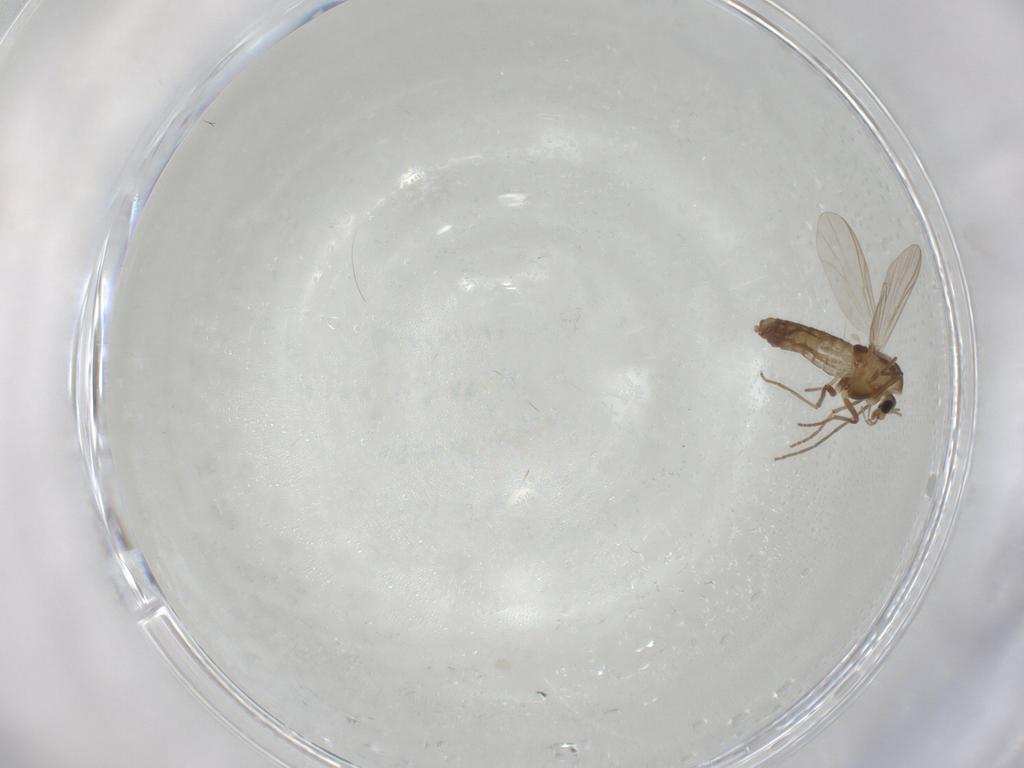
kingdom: Animalia
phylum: Arthropoda
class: Insecta
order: Diptera
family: Chironomidae
